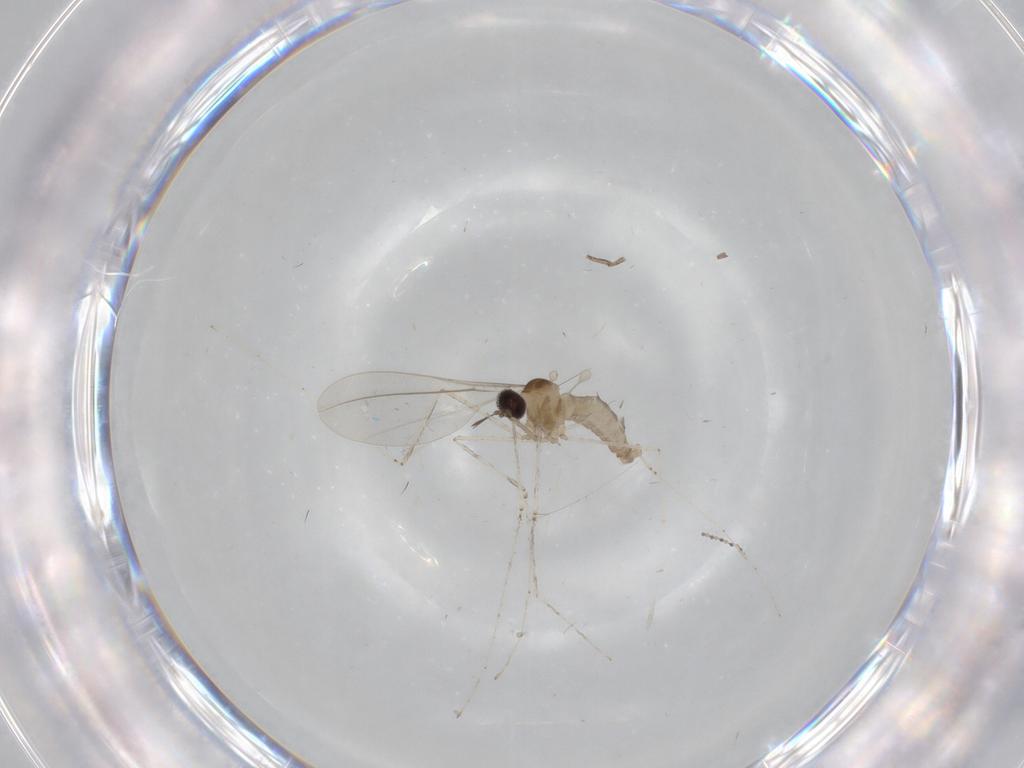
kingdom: Animalia
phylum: Arthropoda
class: Insecta
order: Diptera
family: Cecidomyiidae
